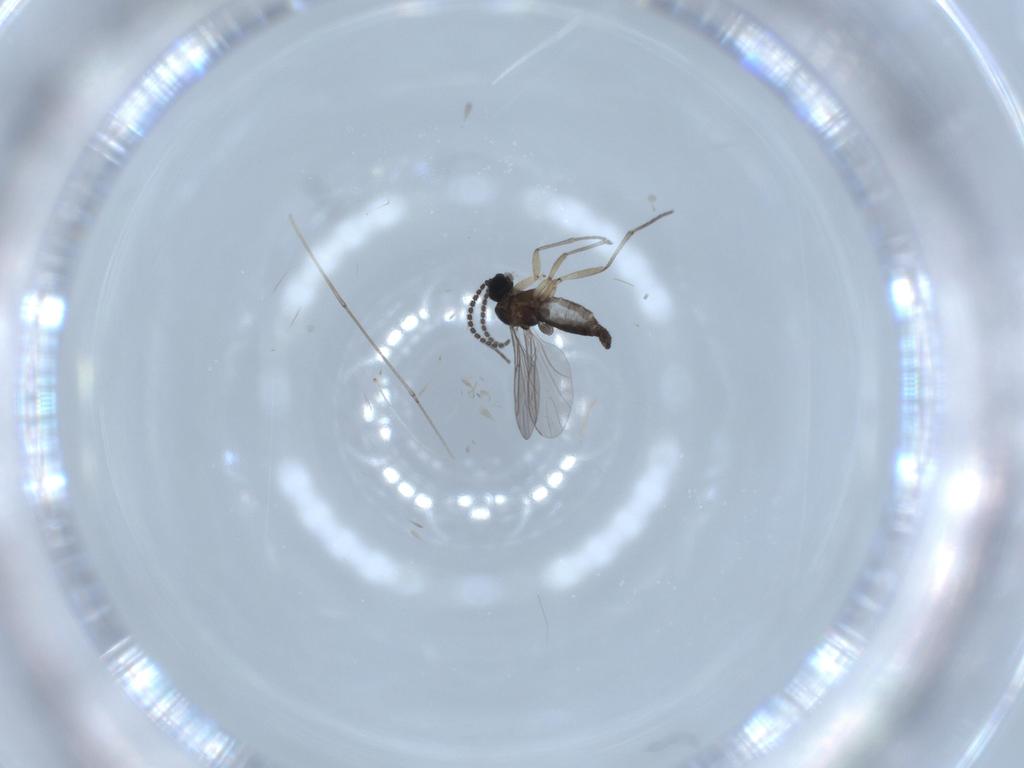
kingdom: Animalia
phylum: Arthropoda
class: Insecta
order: Diptera
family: Sciaridae
